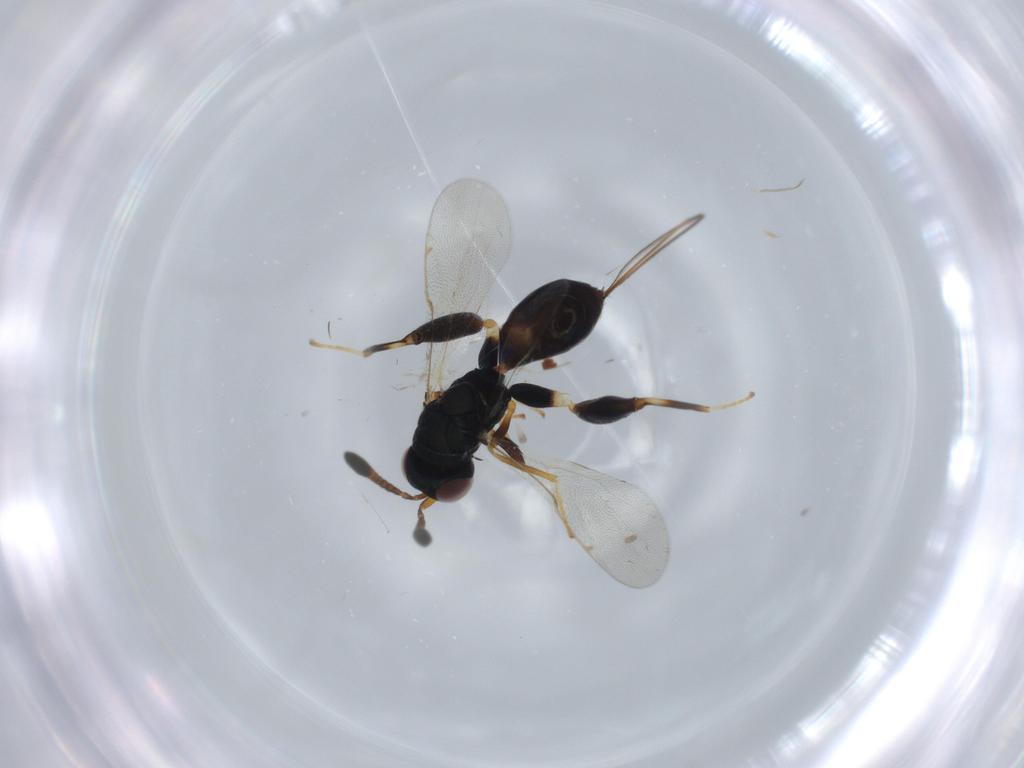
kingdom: Animalia
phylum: Arthropoda
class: Insecta
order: Hymenoptera
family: Torymidae
